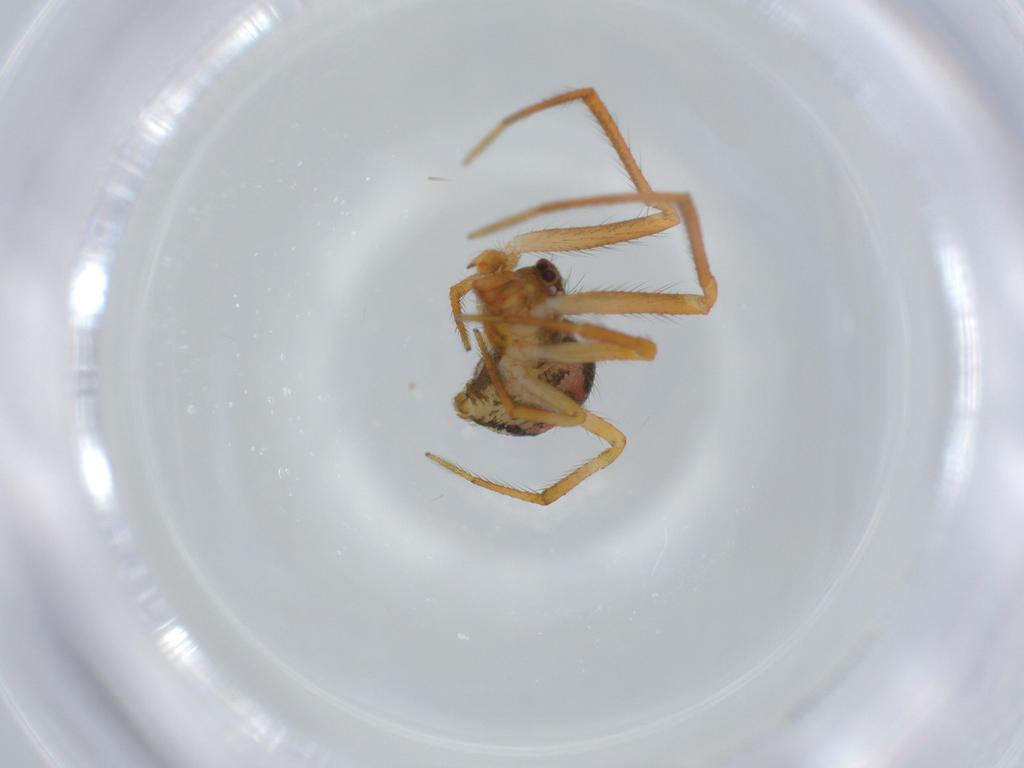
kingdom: Animalia
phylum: Arthropoda
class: Arachnida
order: Araneae
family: Theridiidae
